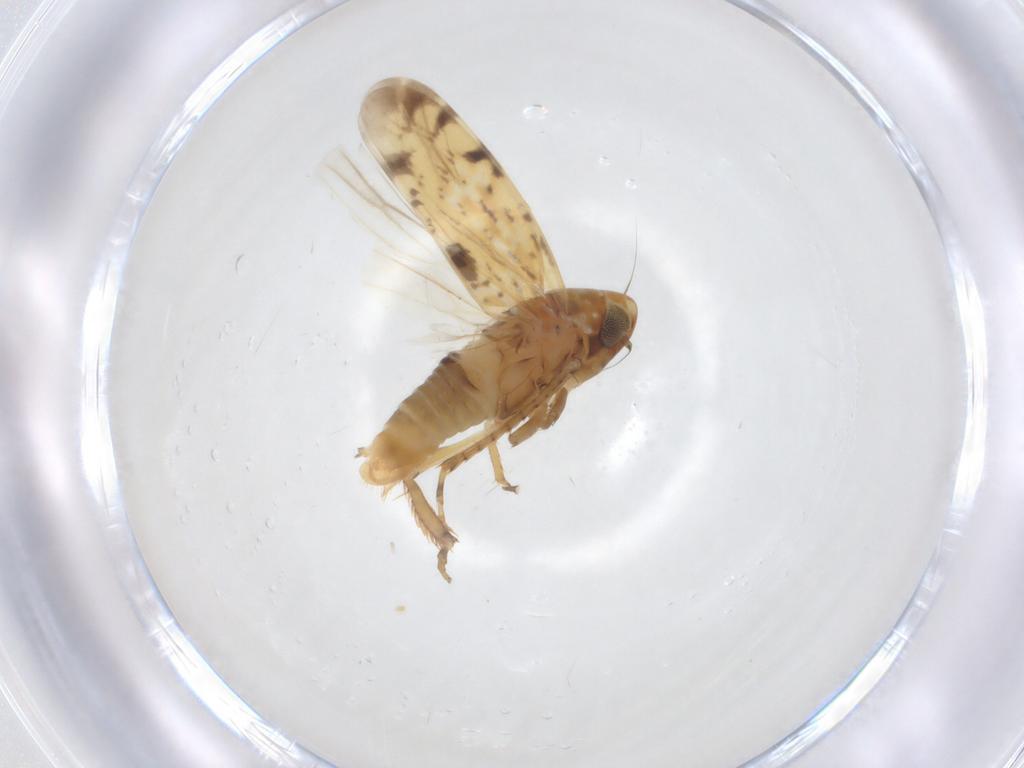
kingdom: Animalia
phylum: Arthropoda
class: Insecta
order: Hemiptera
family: Cicadellidae
